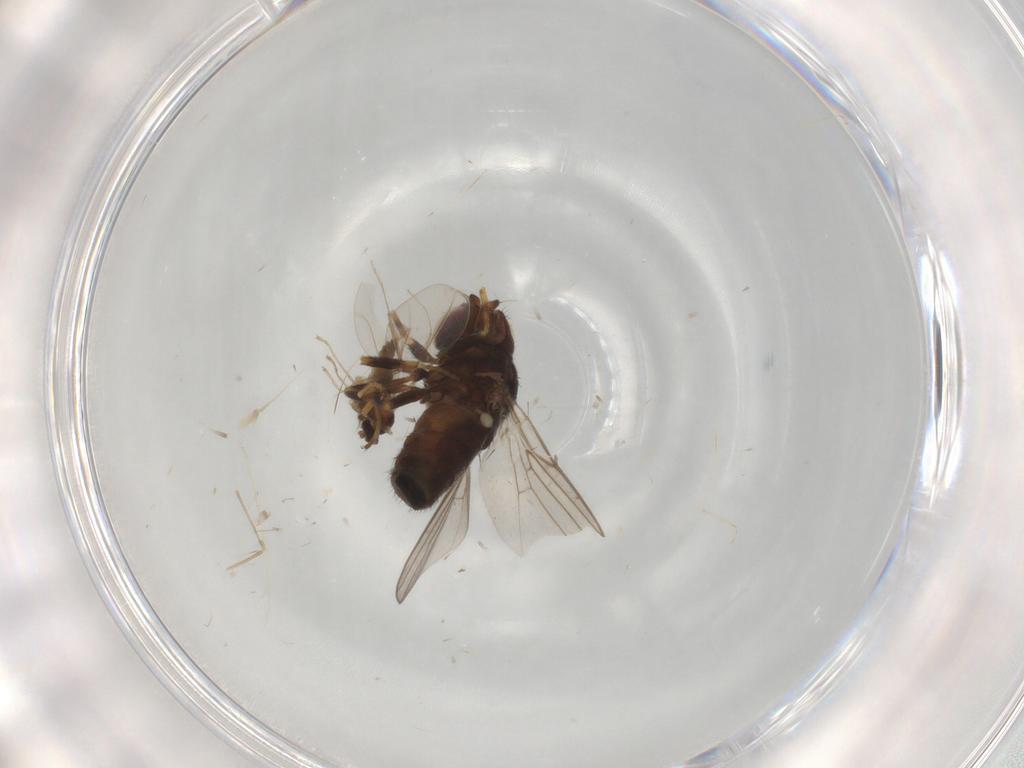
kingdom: Animalia
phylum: Arthropoda
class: Insecta
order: Diptera
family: Chloropidae
